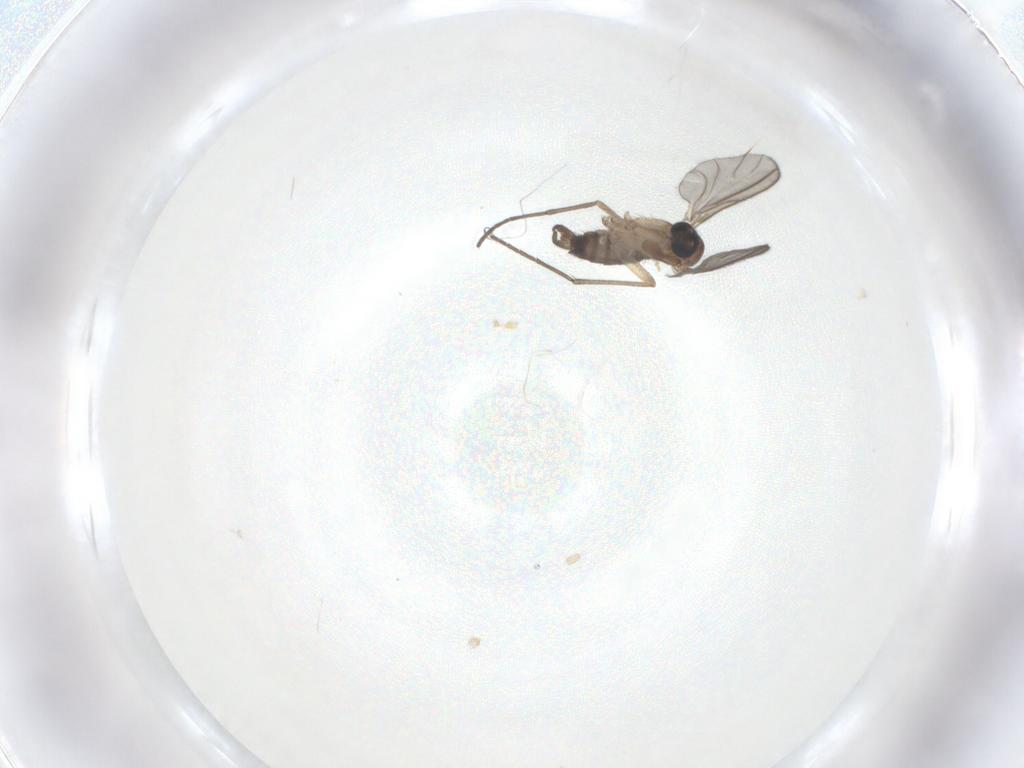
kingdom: Animalia
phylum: Arthropoda
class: Insecta
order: Diptera
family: Sciaridae
